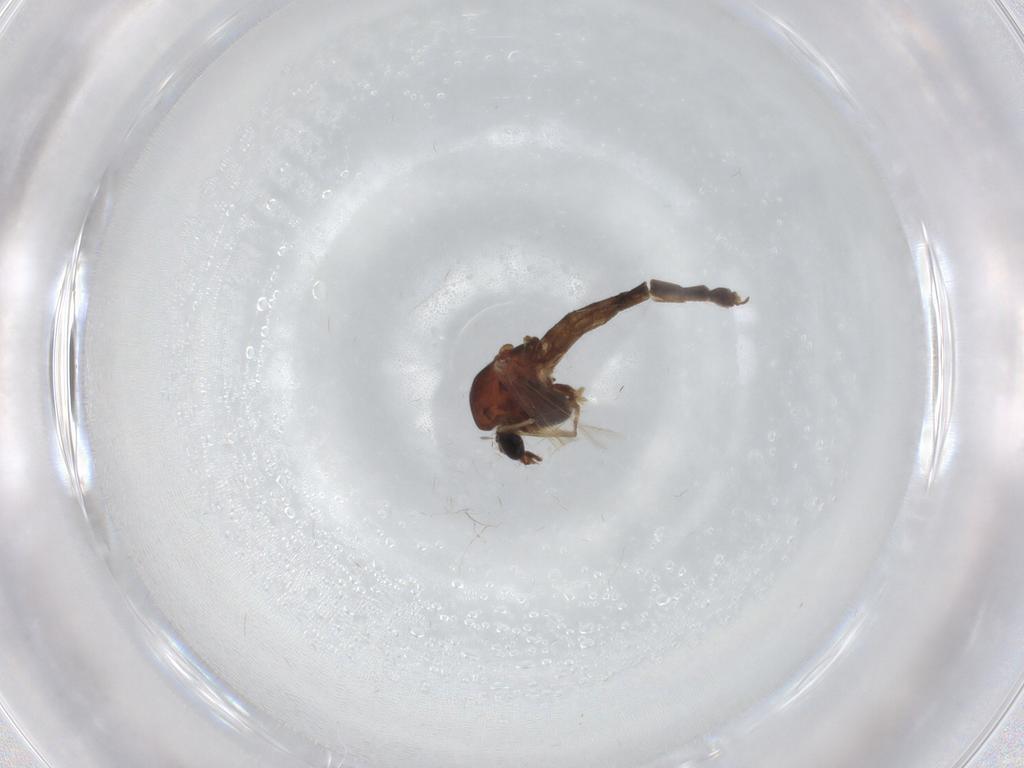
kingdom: Animalia
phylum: Arthropoda
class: Insecta
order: Diptera
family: Chironomidae
